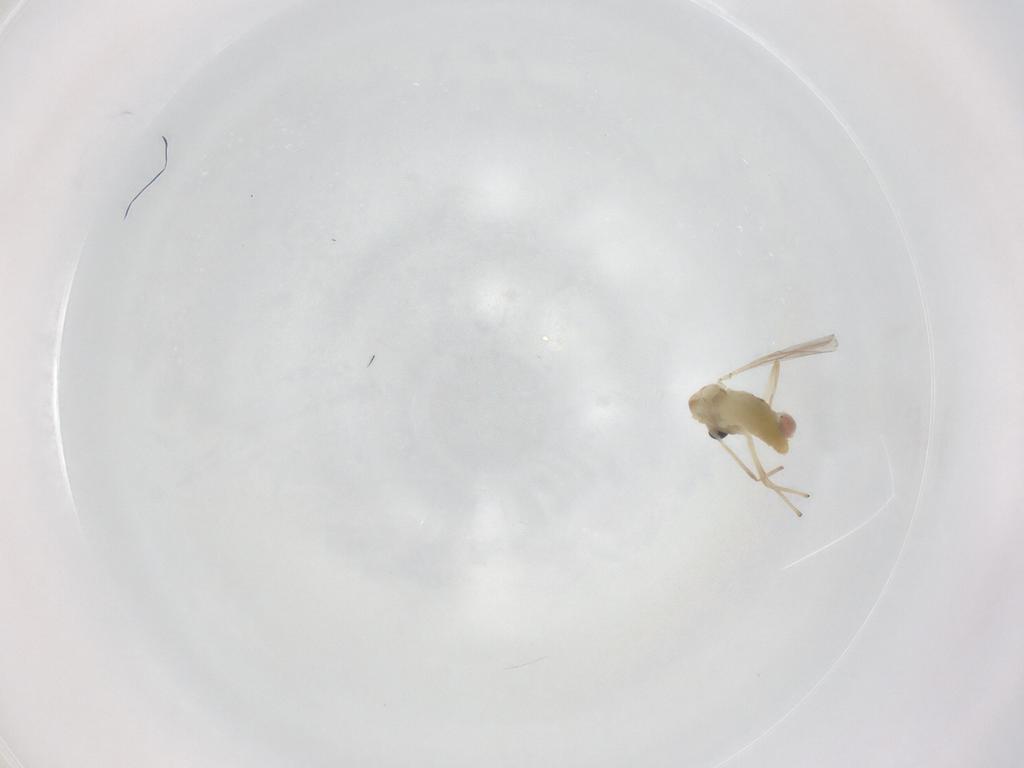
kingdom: Animalia
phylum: Arthropoda
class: Insecta
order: Diptera
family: Chironomidae
